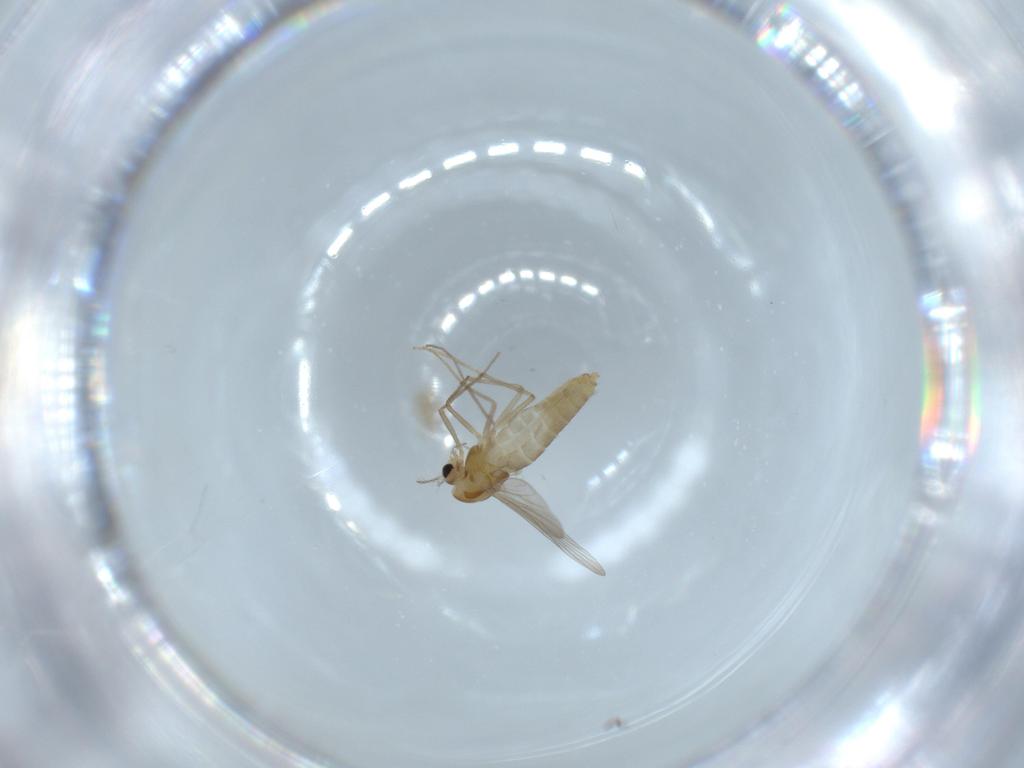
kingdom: Animalia
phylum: Arthropoda
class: Insecta
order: Diptera
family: Chironomidae
